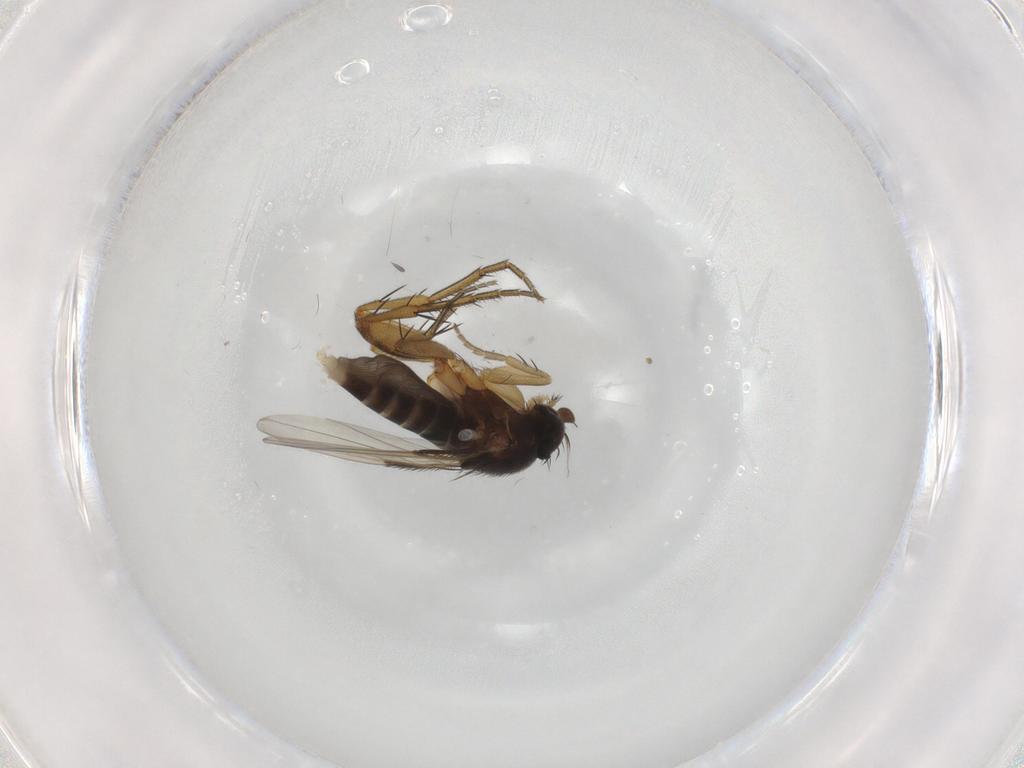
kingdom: Animalia
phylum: Arthropoda
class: Insecta
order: Diptera
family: Phoridae
